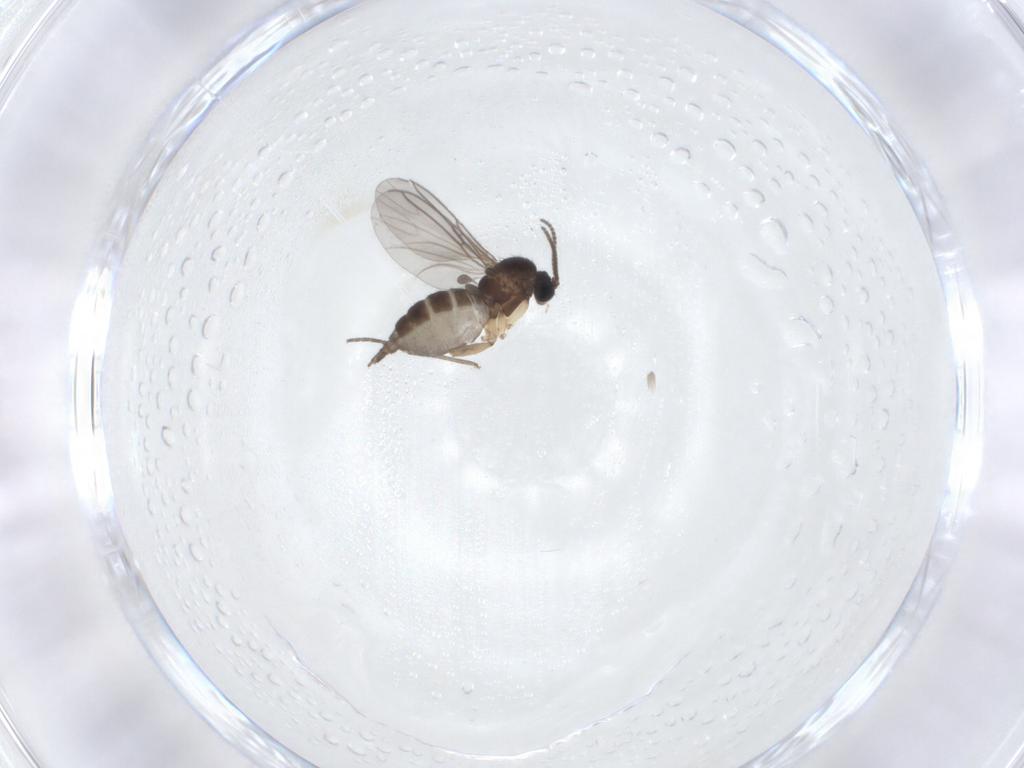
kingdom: Animalia
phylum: Arthropoda
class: Insecta
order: Diptera
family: Sciaridae
